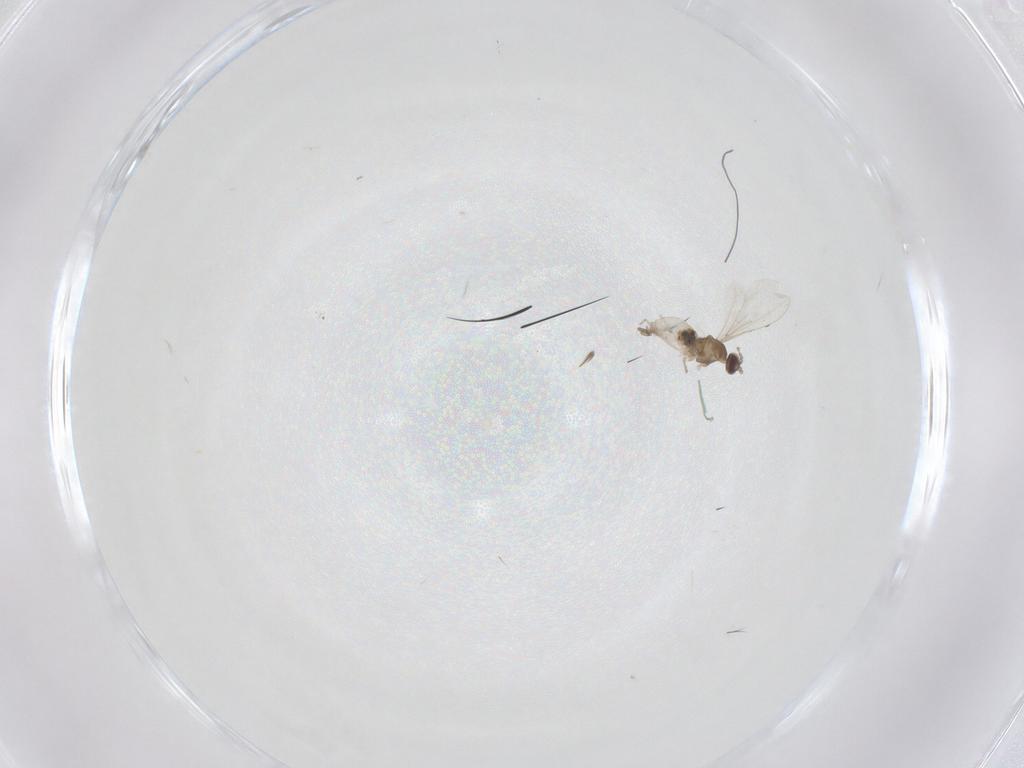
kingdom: Animalia
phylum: Arthropoda
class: Insecta
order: Diptera
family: Cecidomyiidae
